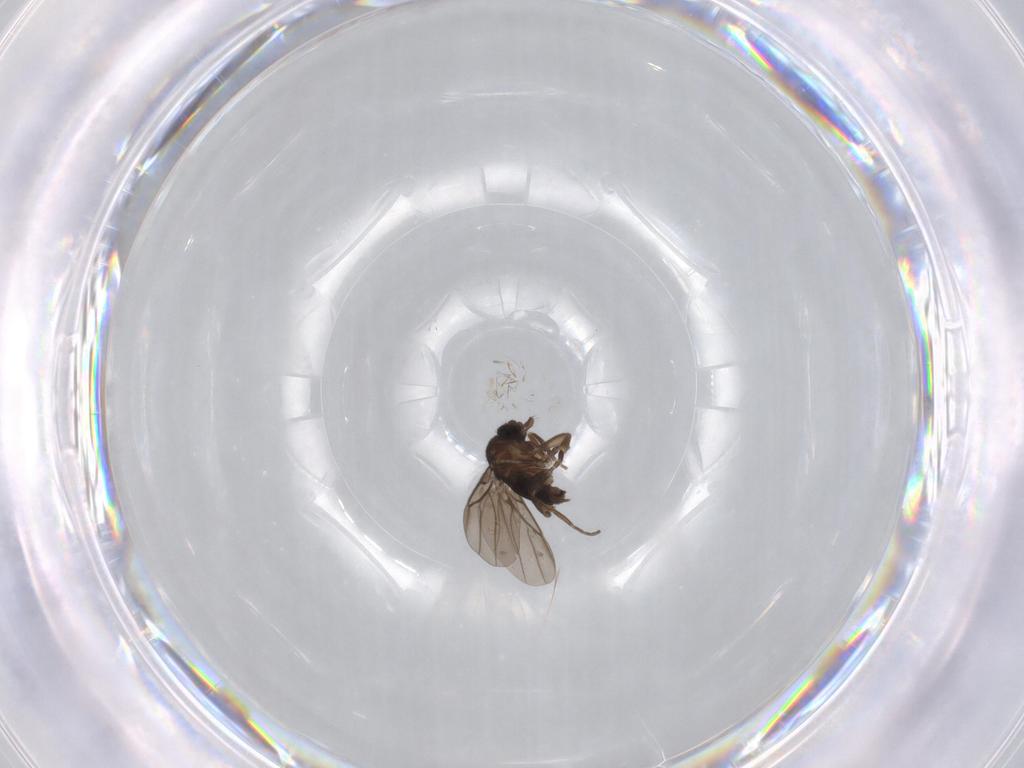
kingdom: Animalia
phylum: Arthropoda
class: Insecta
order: Diptera
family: Phoridae
